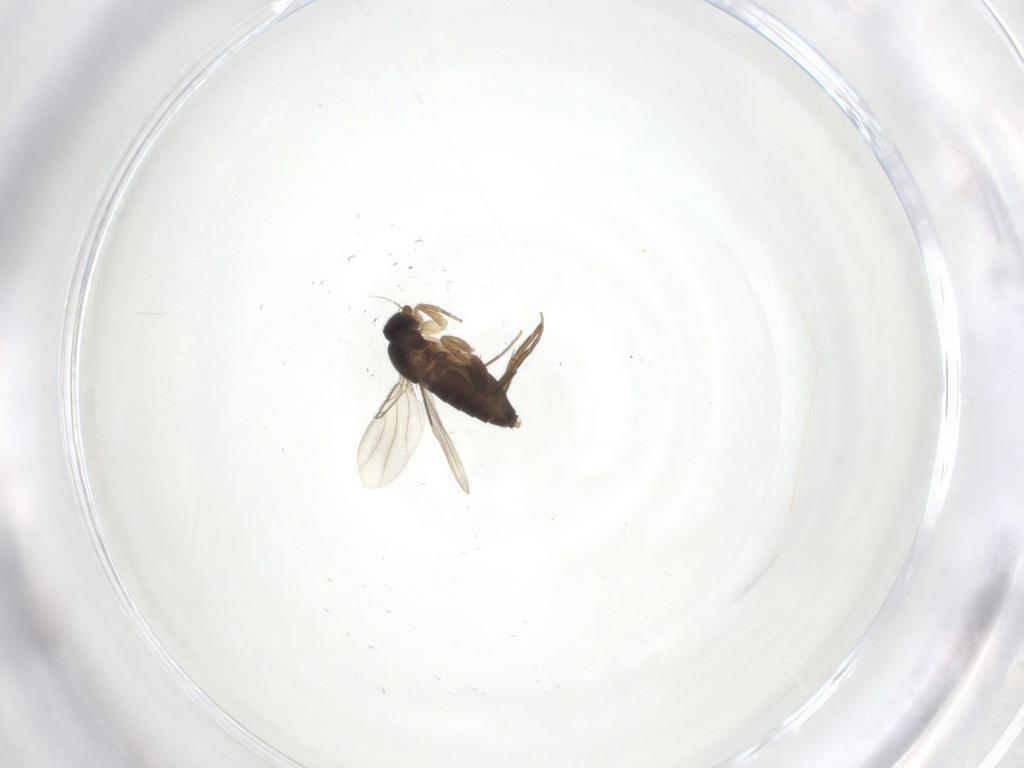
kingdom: Animalia
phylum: Arthropoda
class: Insecta
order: Diptera
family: Phoridae
